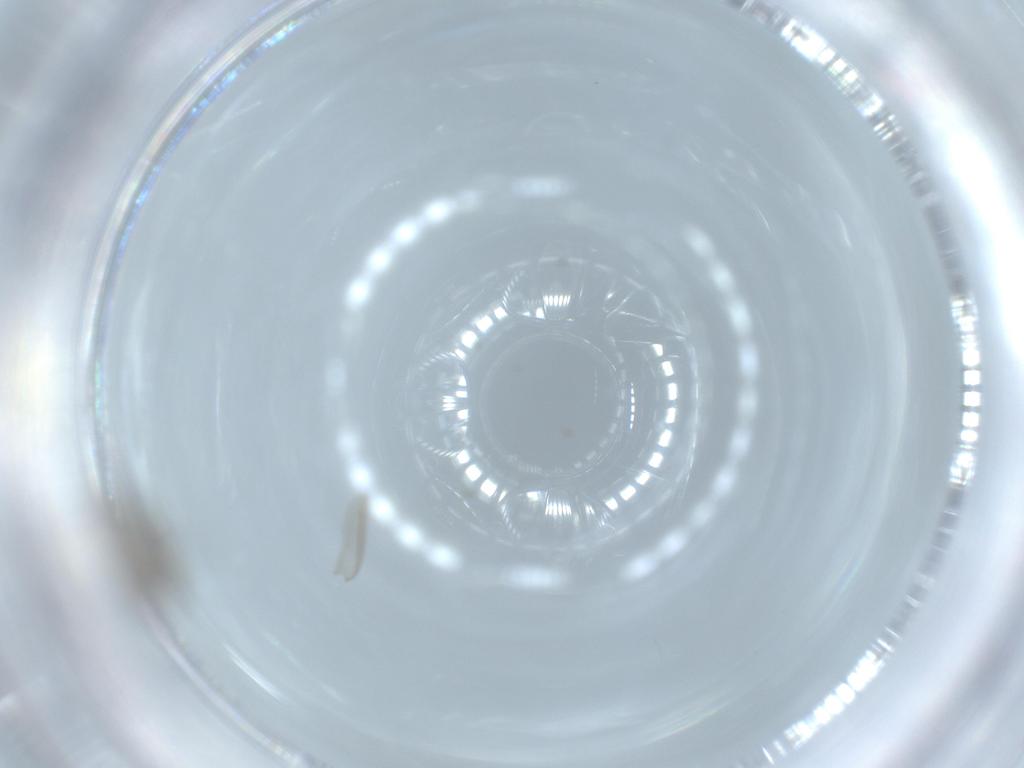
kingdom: Animalia
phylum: Arthropoda
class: Insecta
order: Diptera
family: Chironomidae
